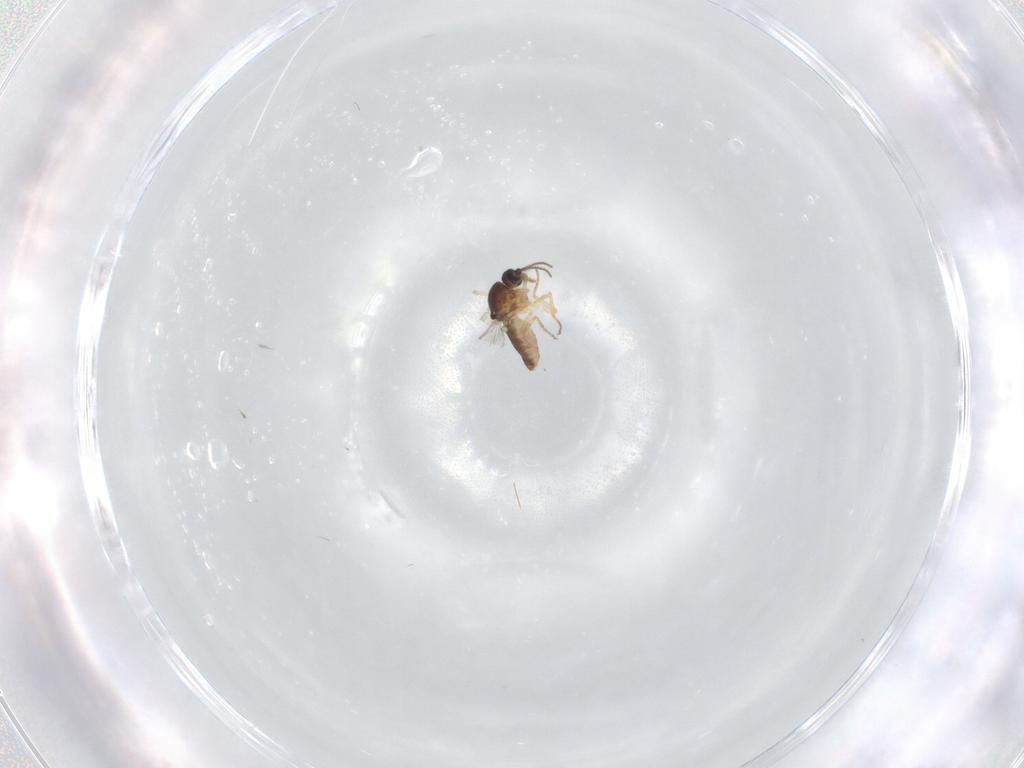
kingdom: Animalia
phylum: Arthropoda
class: Insecta
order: Diptera
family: Ceratopogonidae
